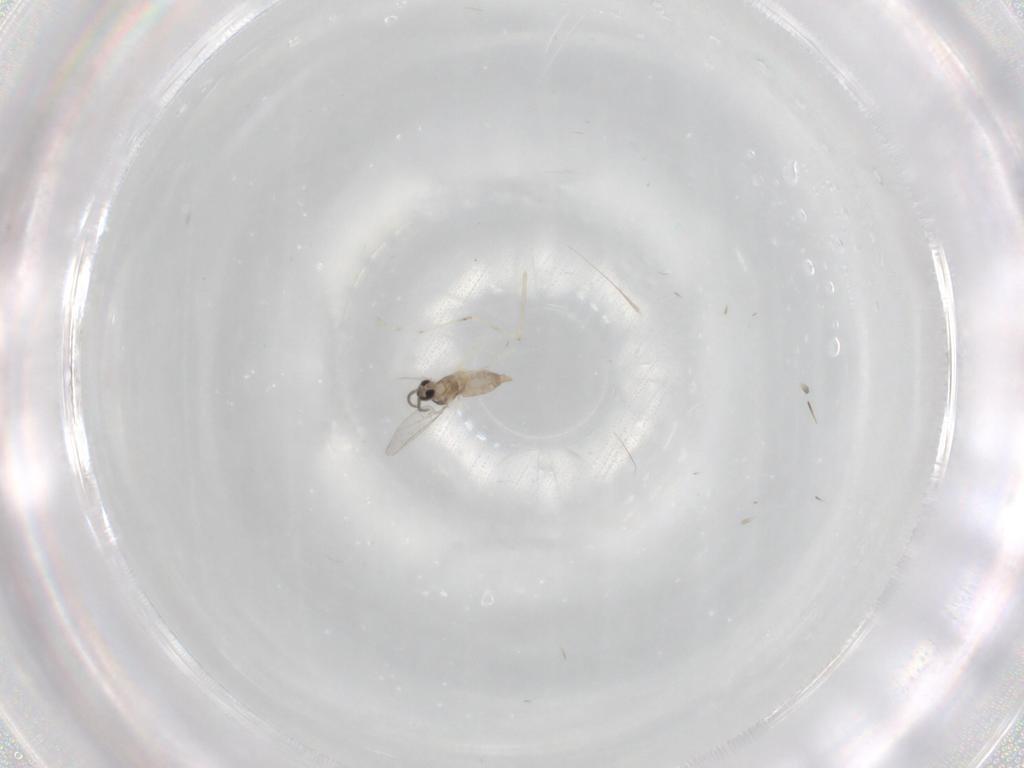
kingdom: Animalia
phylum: Arthropoda
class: Insecta
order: Diptera
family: Cecidomyiidae
